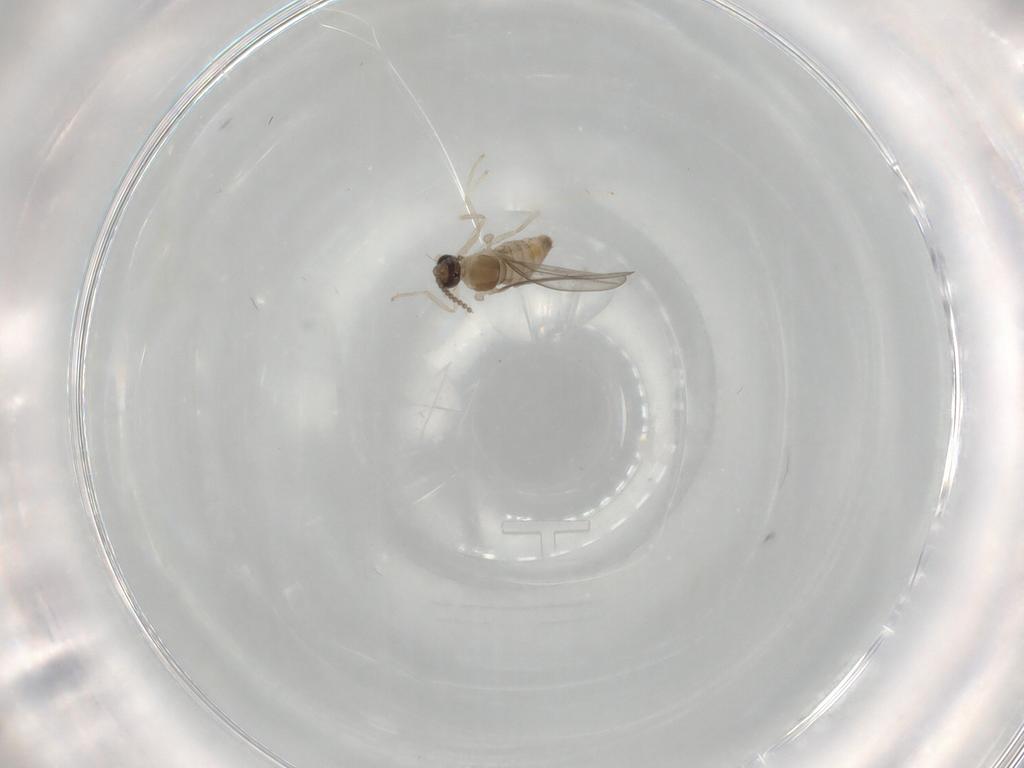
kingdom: Animalia
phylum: Arthropoda
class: Insecta
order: Diptera
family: Cecidomyiidae
